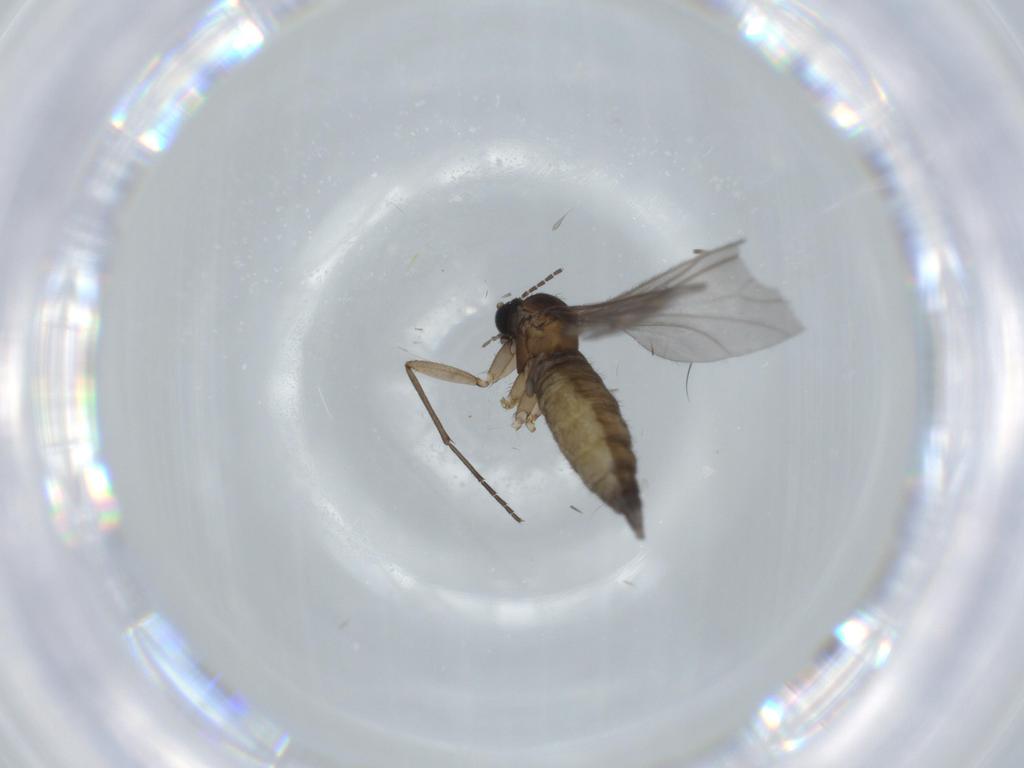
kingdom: Animalia
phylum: Arthropoda
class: Insecta
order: Diptera
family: Sciaridae
